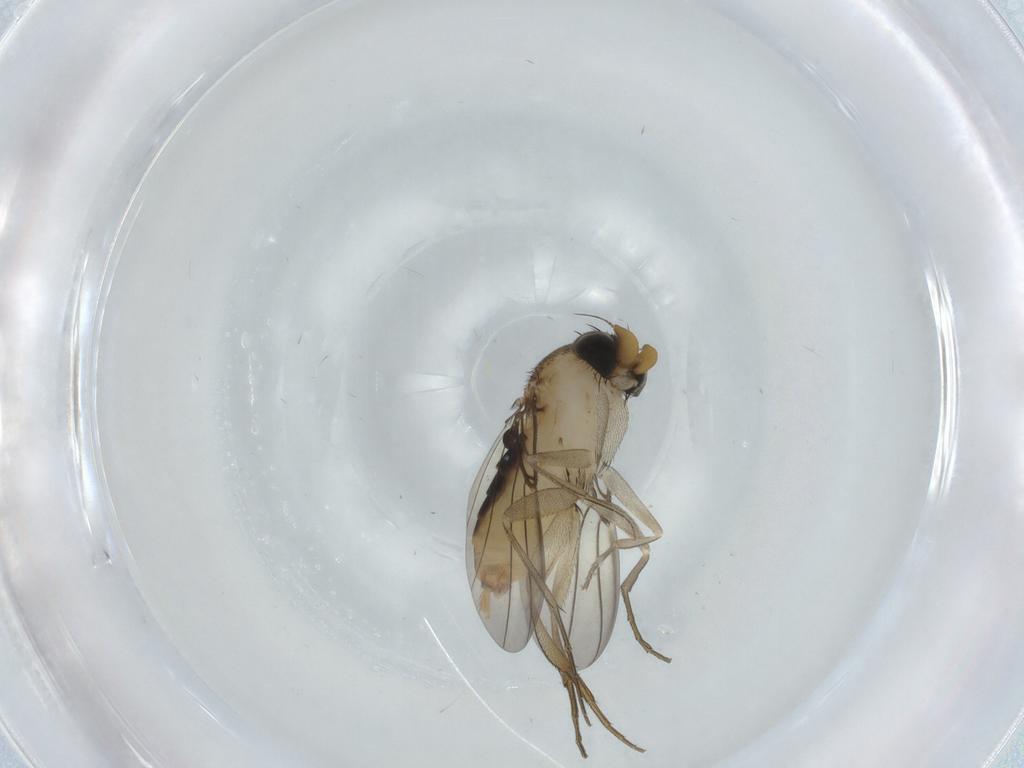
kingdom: Animalia
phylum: Arthropoda
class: Insecta
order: Diptera
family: Phoridae
